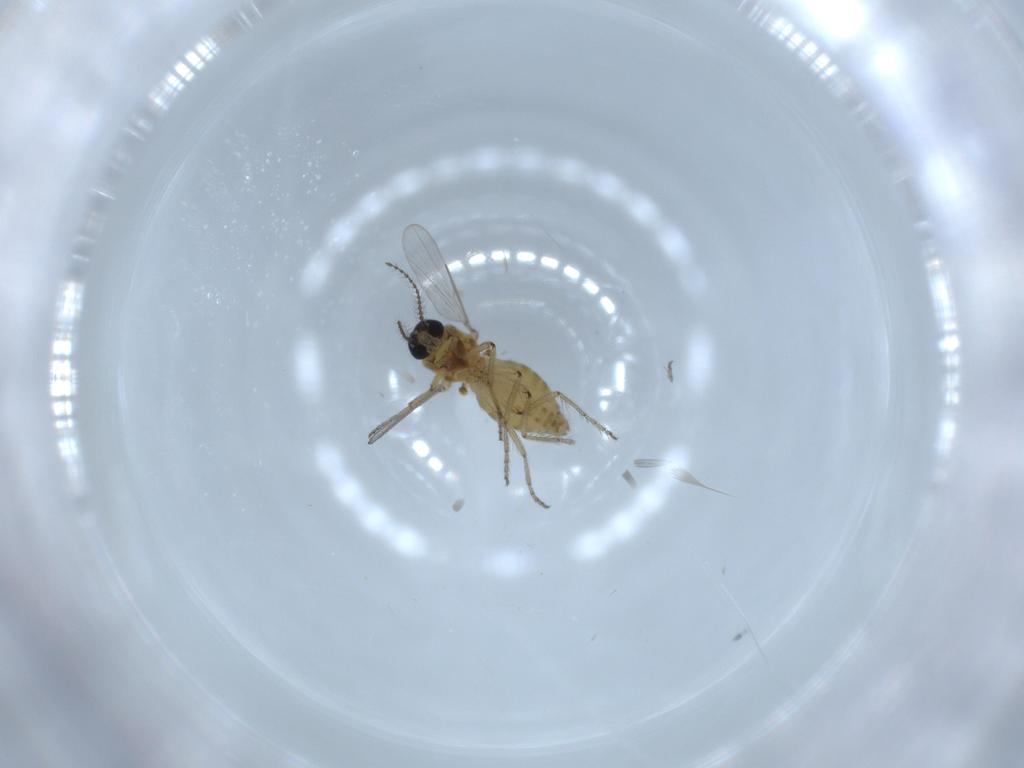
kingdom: Animalia
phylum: Arthropoda
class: Insecta
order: Diptera
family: Ceratopogonidae
